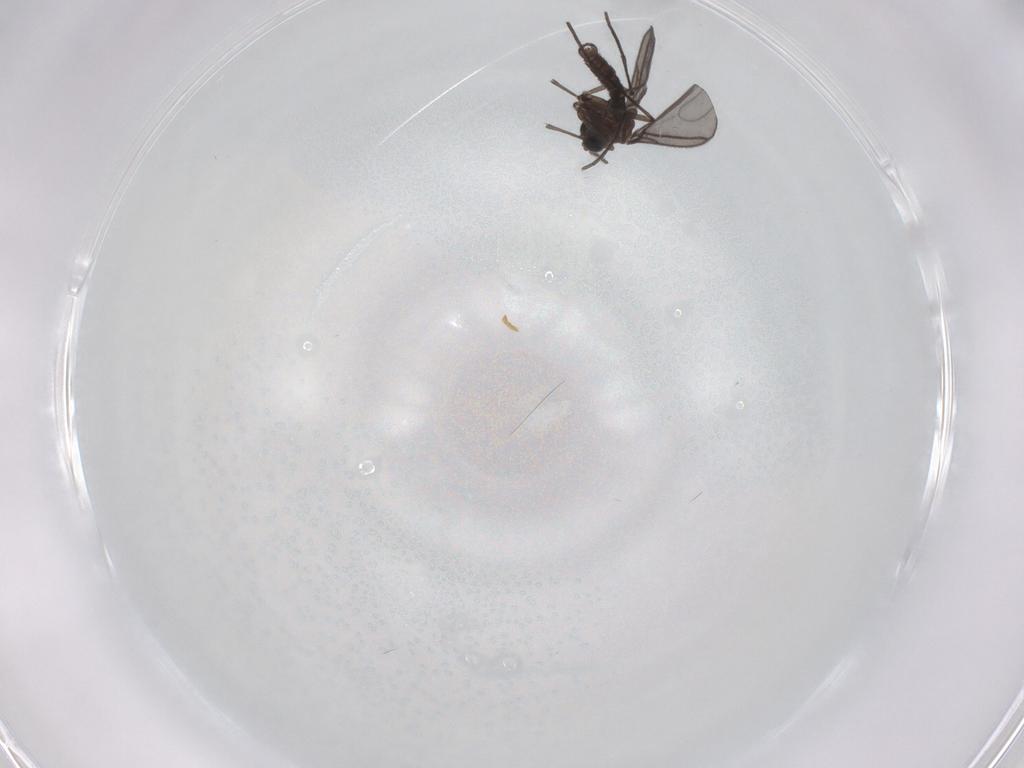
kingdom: Animalia
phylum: Arthropoda
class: Insecta
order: Diptera
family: Sciaridae
